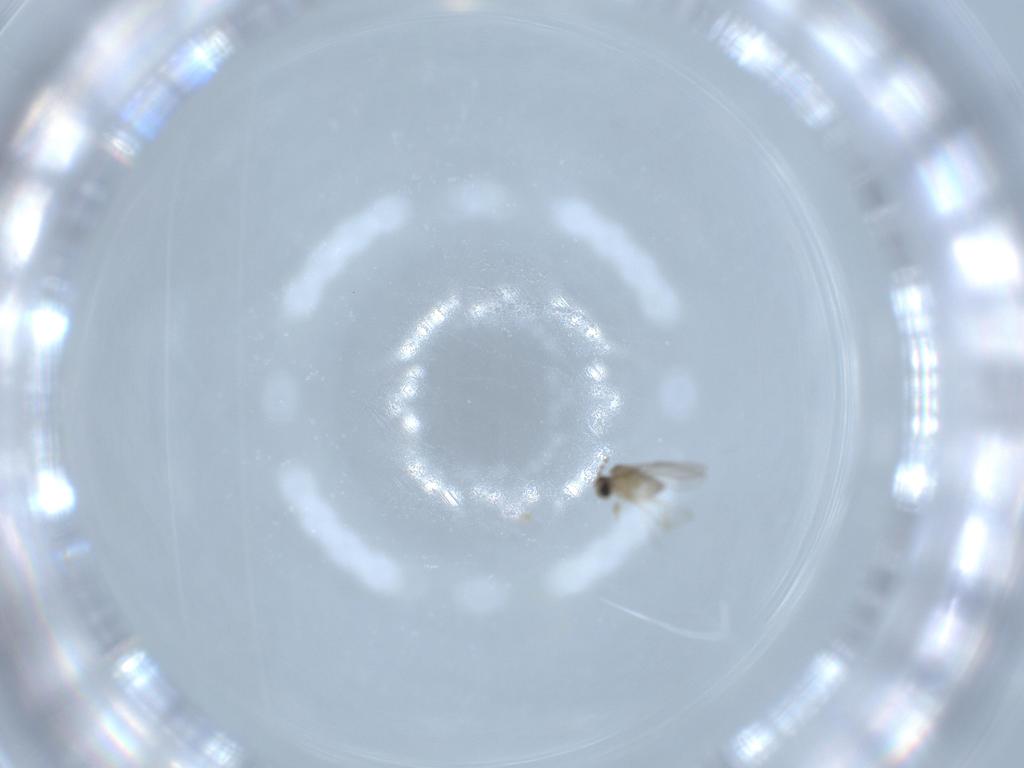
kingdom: Animalia
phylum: Arthropoda
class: Insecta
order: Diptera
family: Cecidomyiidae
